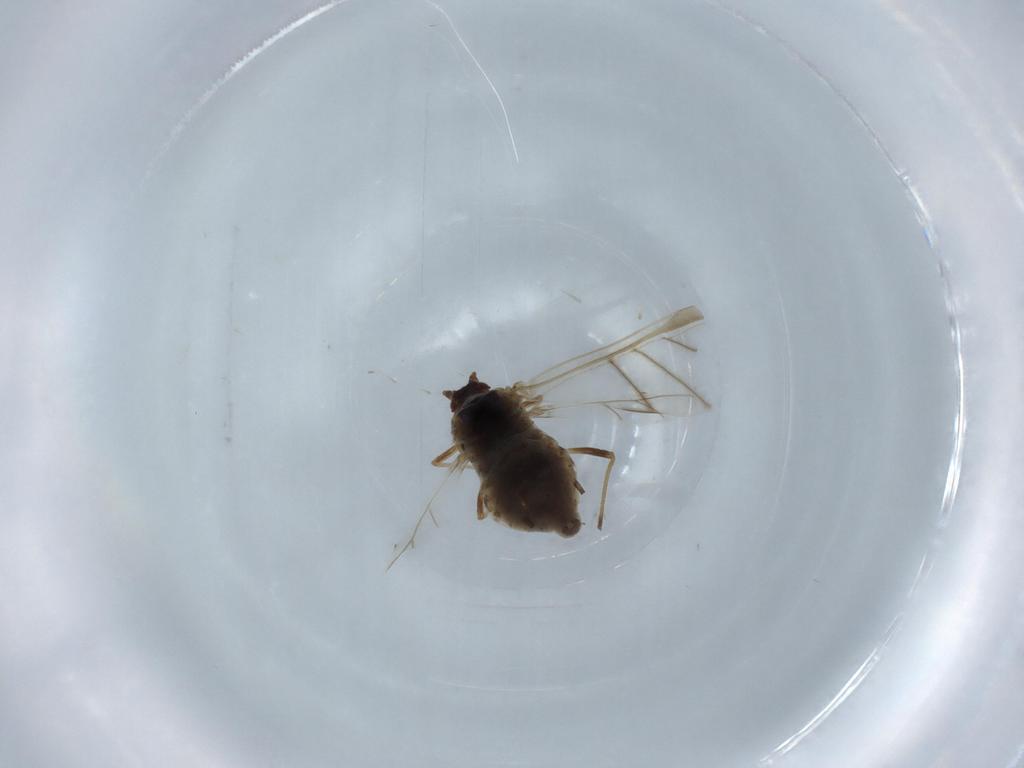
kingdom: Animalia
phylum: Arthropoda
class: Insecta
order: Hemiptera
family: Aphididae
